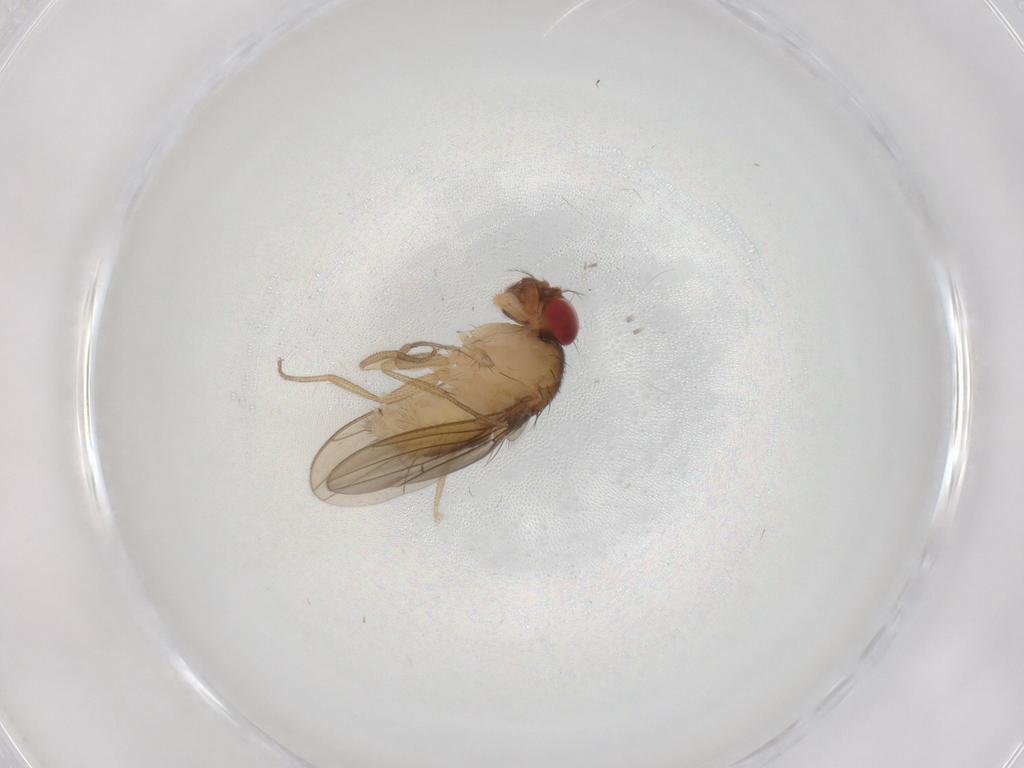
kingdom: Animalia
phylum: Arthropoda
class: Insecta
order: Diptera
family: Drosophilidae
